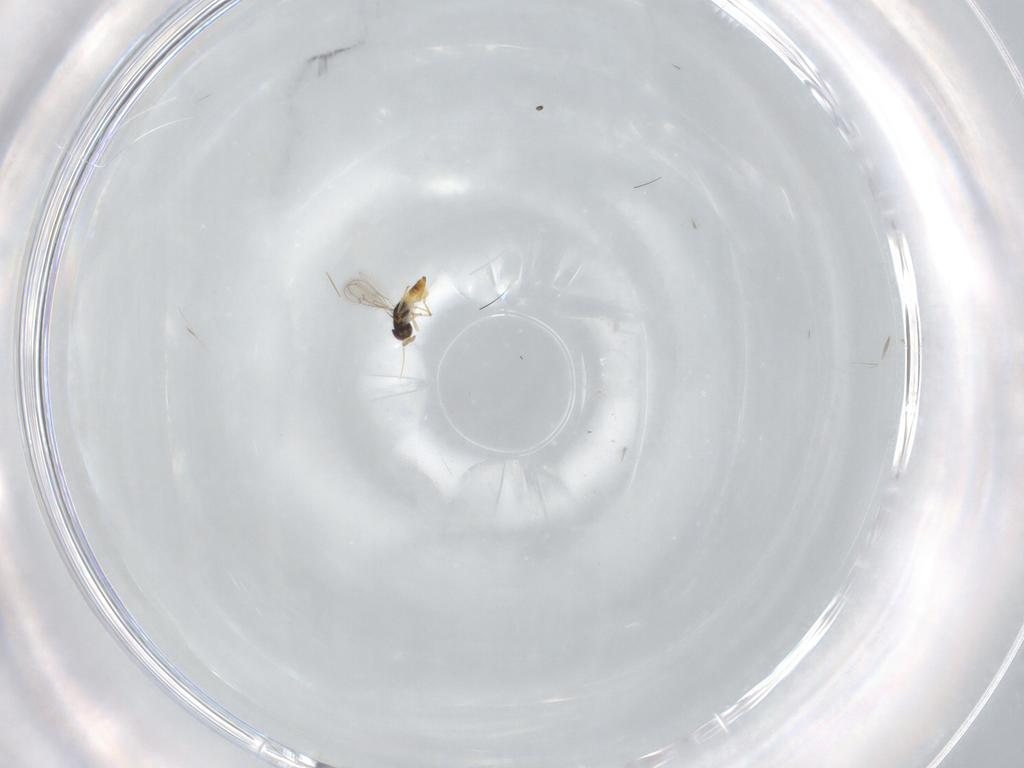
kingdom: Animalia
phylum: Arthropoda
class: Insecta
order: Hymenoptera
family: Eulophidae
